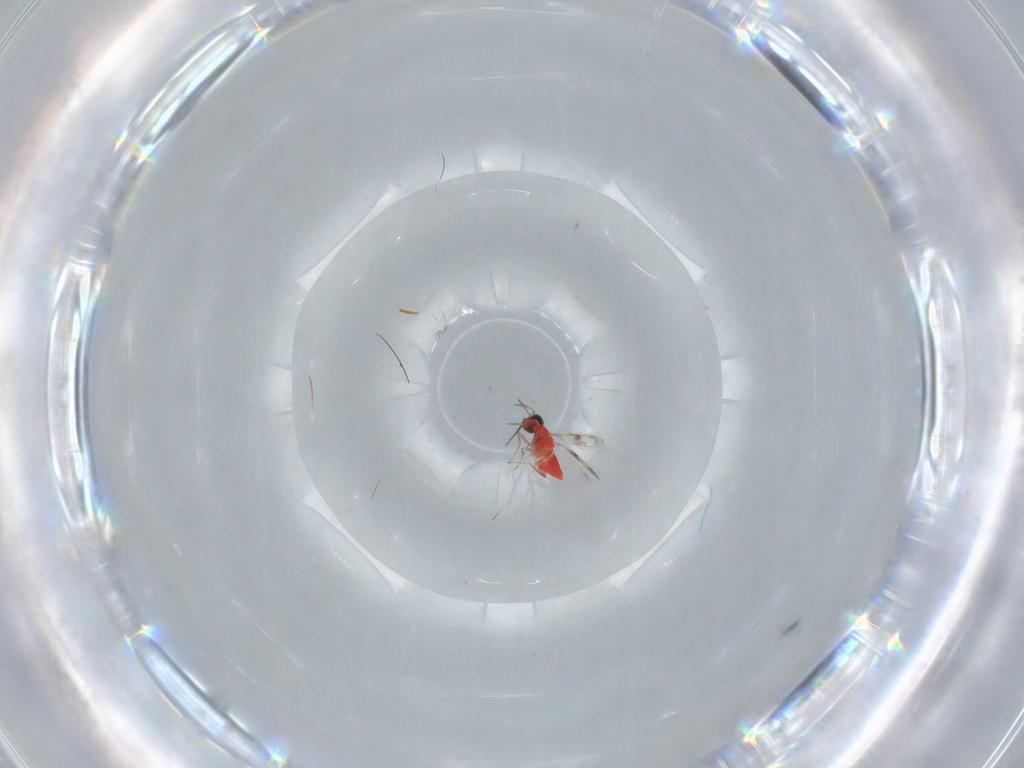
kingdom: Animalia
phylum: Arthropoda
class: Insecta
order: Hymenoptera
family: Trichogrammatidae
